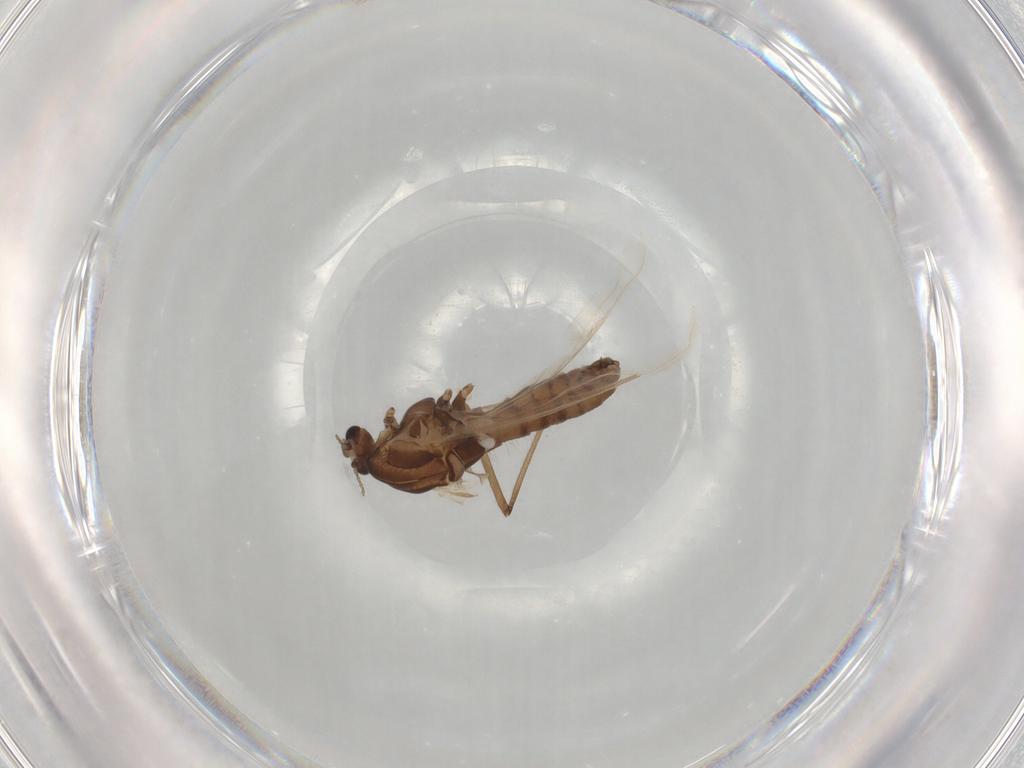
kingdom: Animalia
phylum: Arthropoda
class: Insecta
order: Diptera
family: Chironomidae
